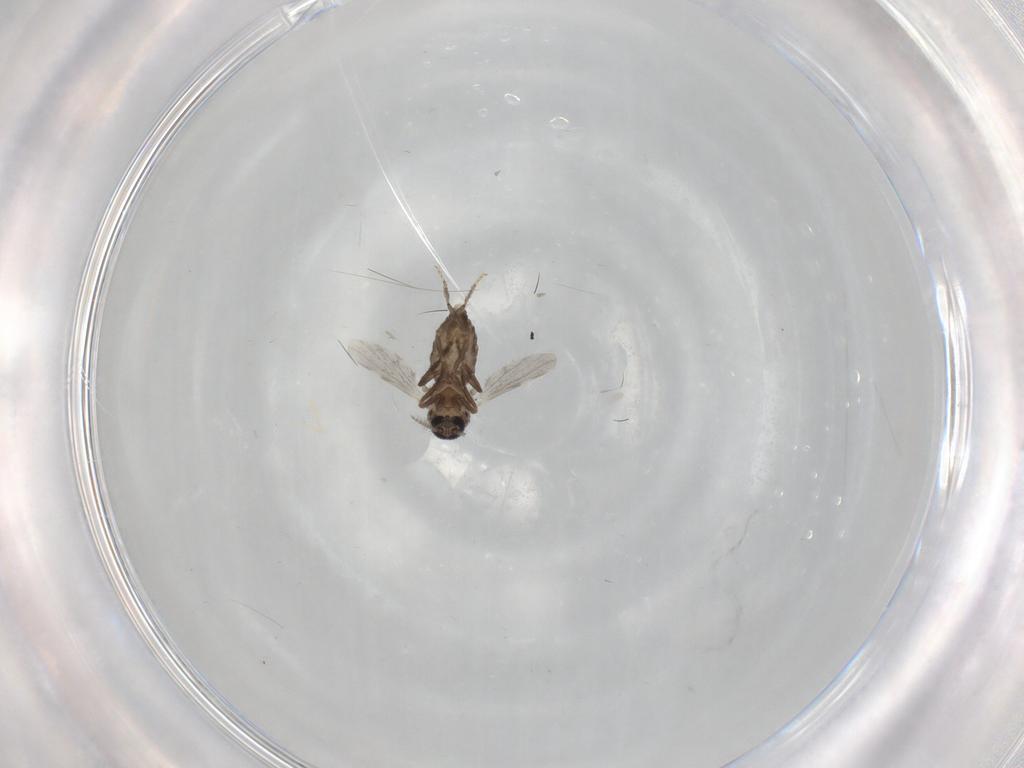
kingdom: Animalia
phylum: Arthropoda
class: Insecta
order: Diptera
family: Ceratopogonidae
